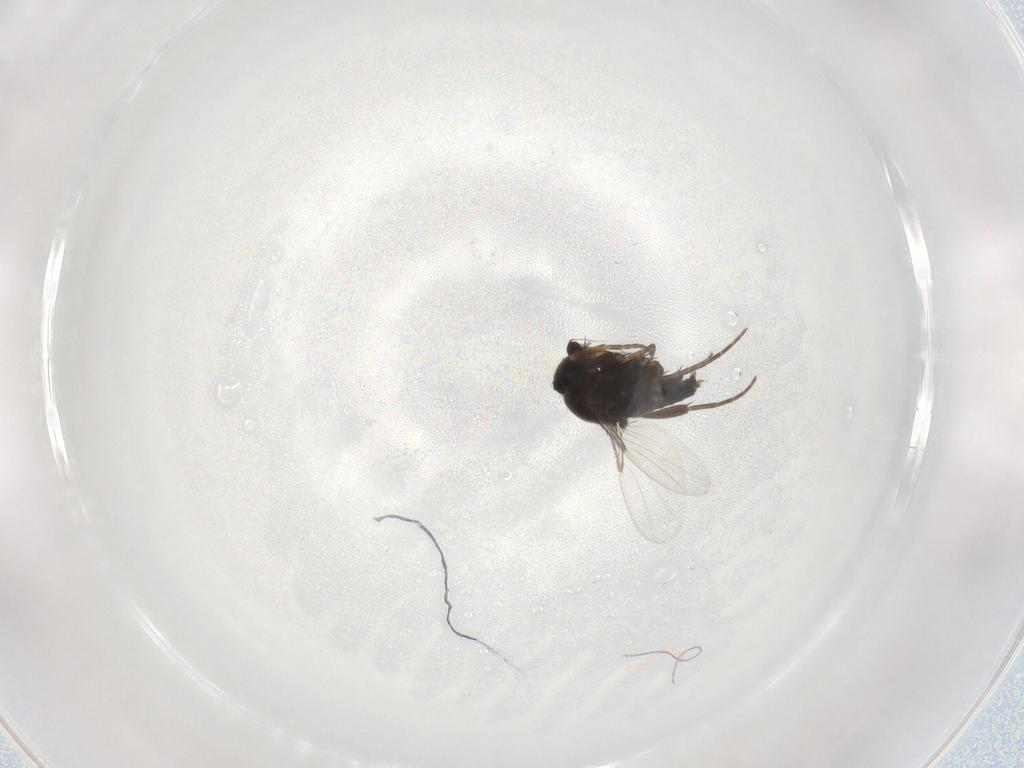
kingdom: Animalia
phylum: Arthropoda
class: Insecta
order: Diptera
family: Phoridae
